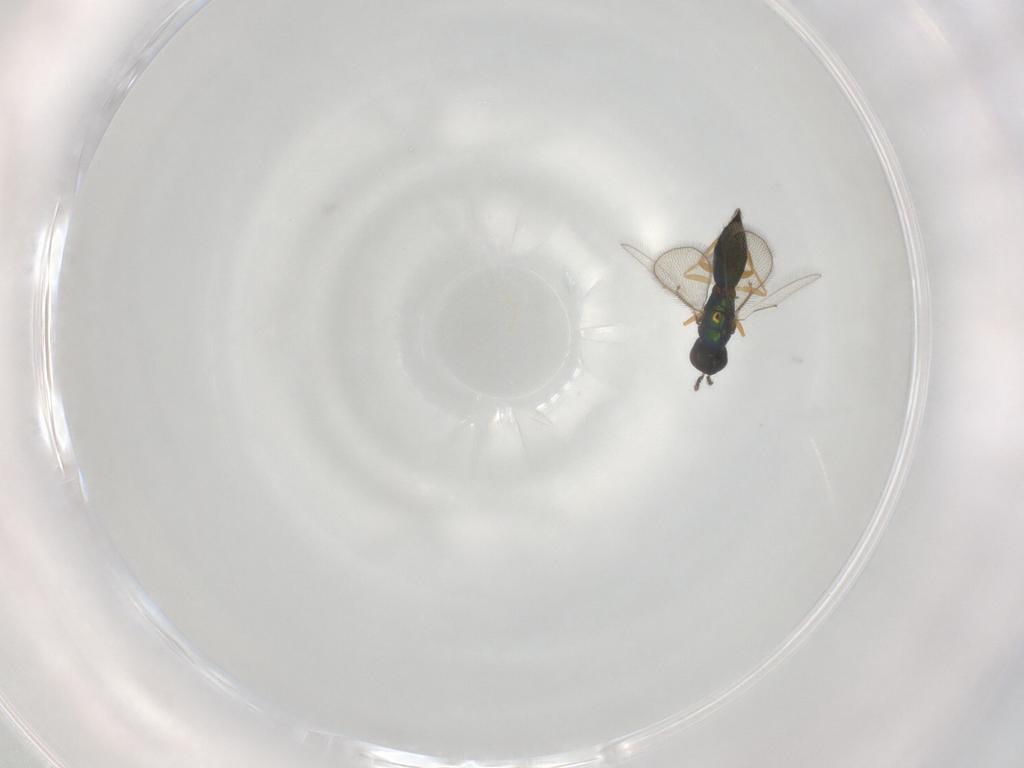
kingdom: Animalia
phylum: Arthropoda
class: Insecta
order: Hymenoptera
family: Eulophidae
